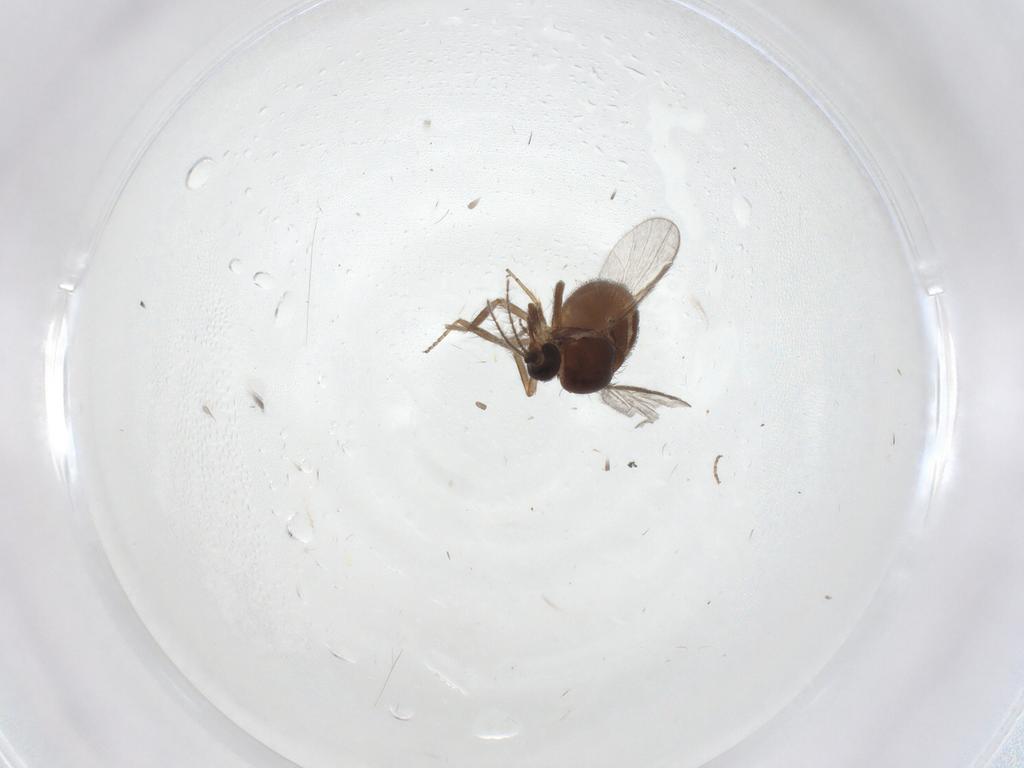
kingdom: Animalia
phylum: Arthropoda
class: Insecta
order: Diptera
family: Ceratopogonidae
